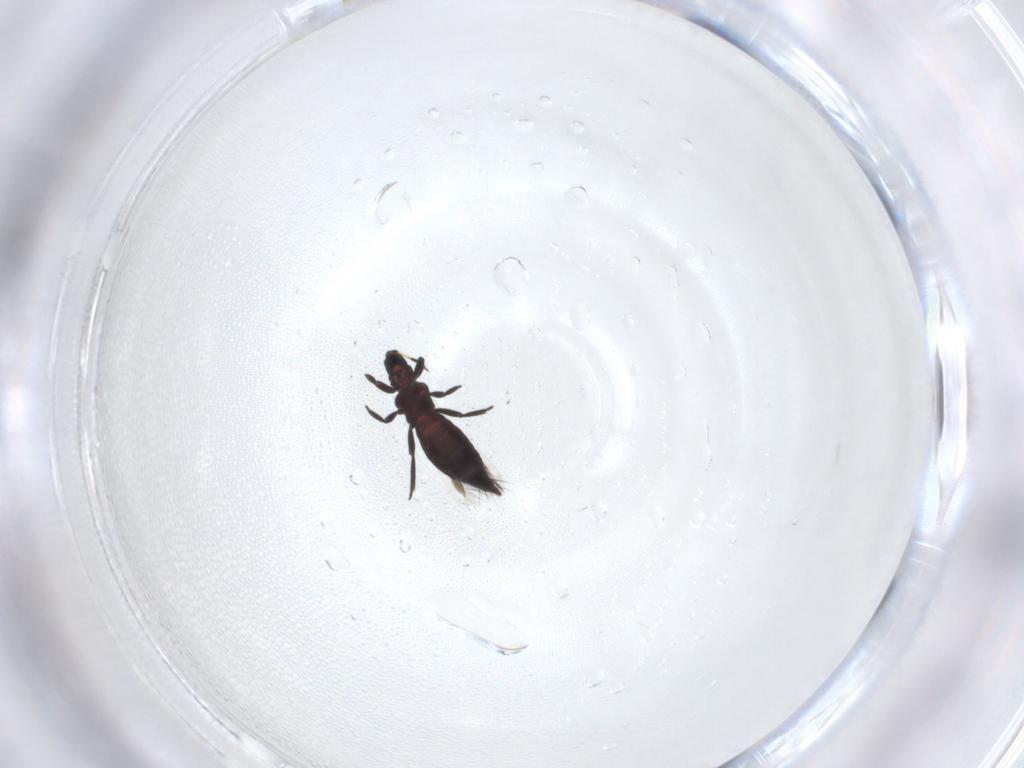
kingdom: Animalia
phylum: Arthropoda
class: Insecta
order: Thysanoptera
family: Aeolothripidae
